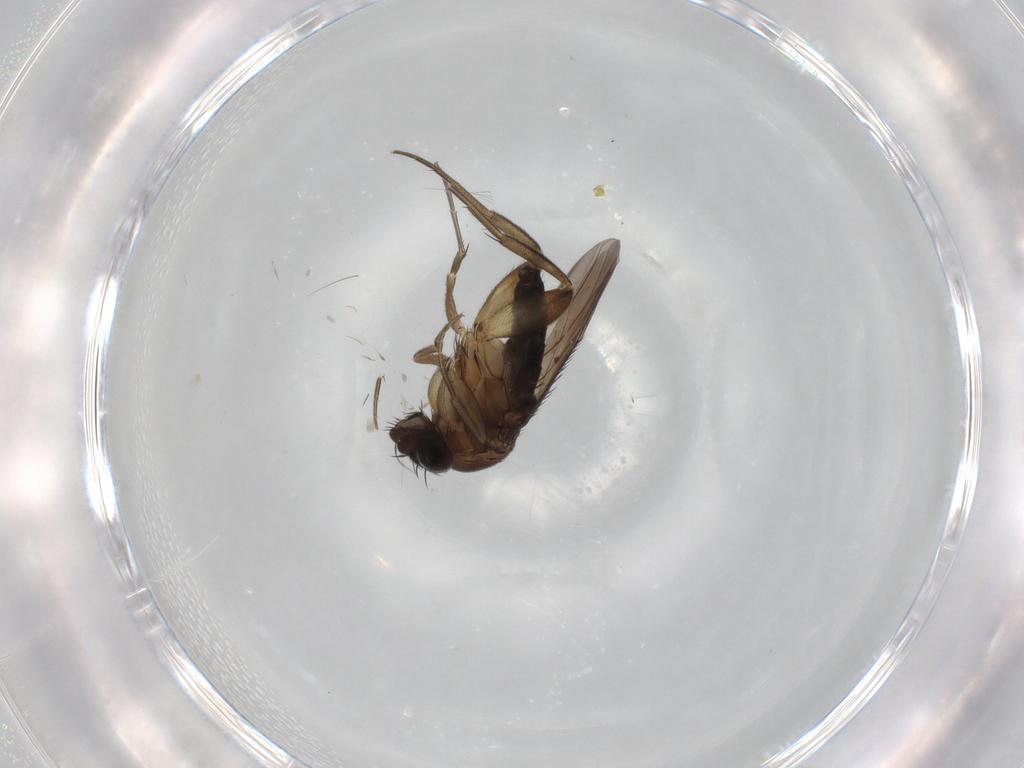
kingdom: Animalia
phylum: Arthropoda
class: Insecta
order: Diptera
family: Phoridae
